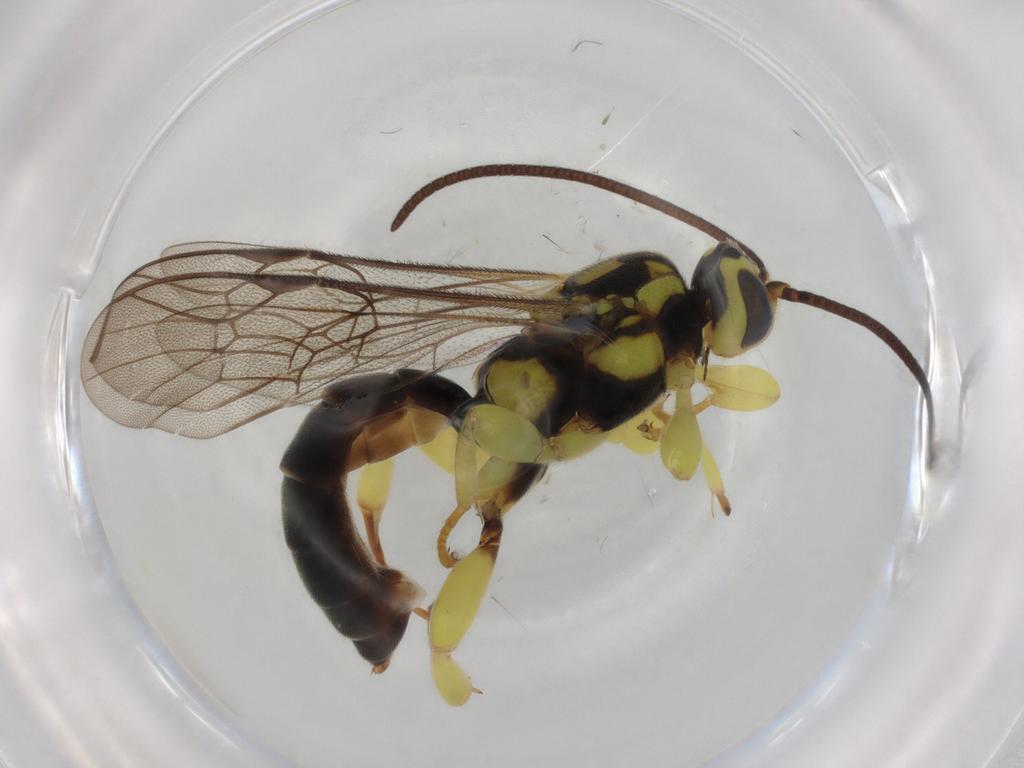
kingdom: Animalia
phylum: Arthropoda
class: Insecta
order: Hymenoptera
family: Ichneumonidae
